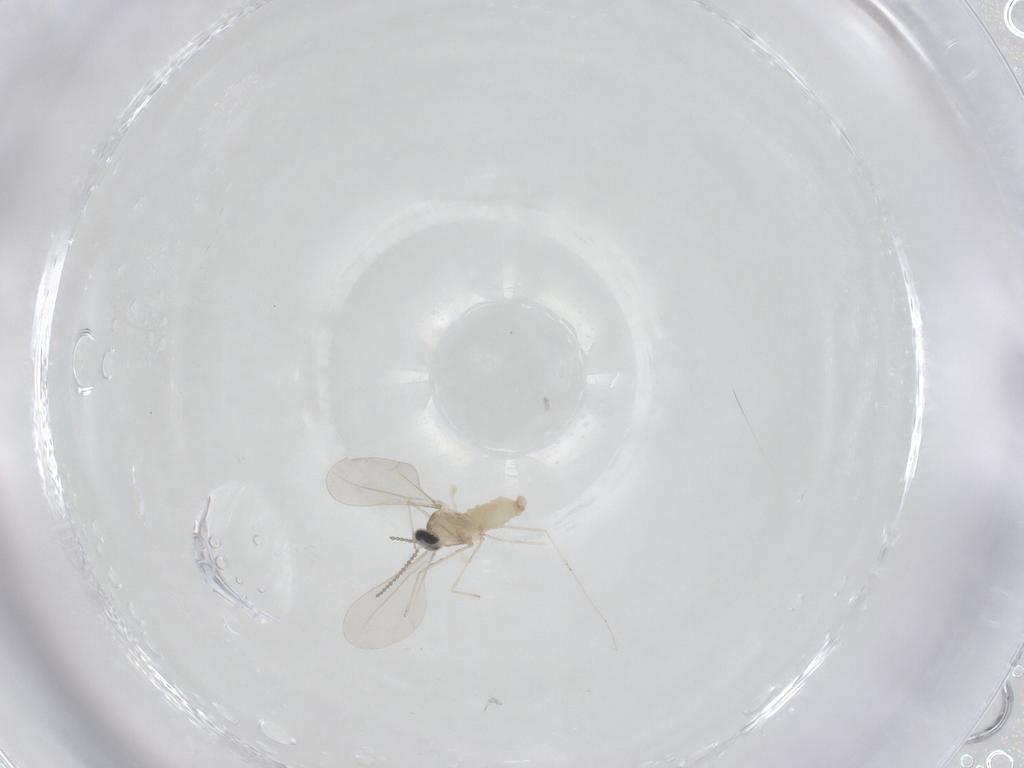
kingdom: Animalia
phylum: Arthropoda
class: Insecta
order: Diptera
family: Cecidomyiidae
